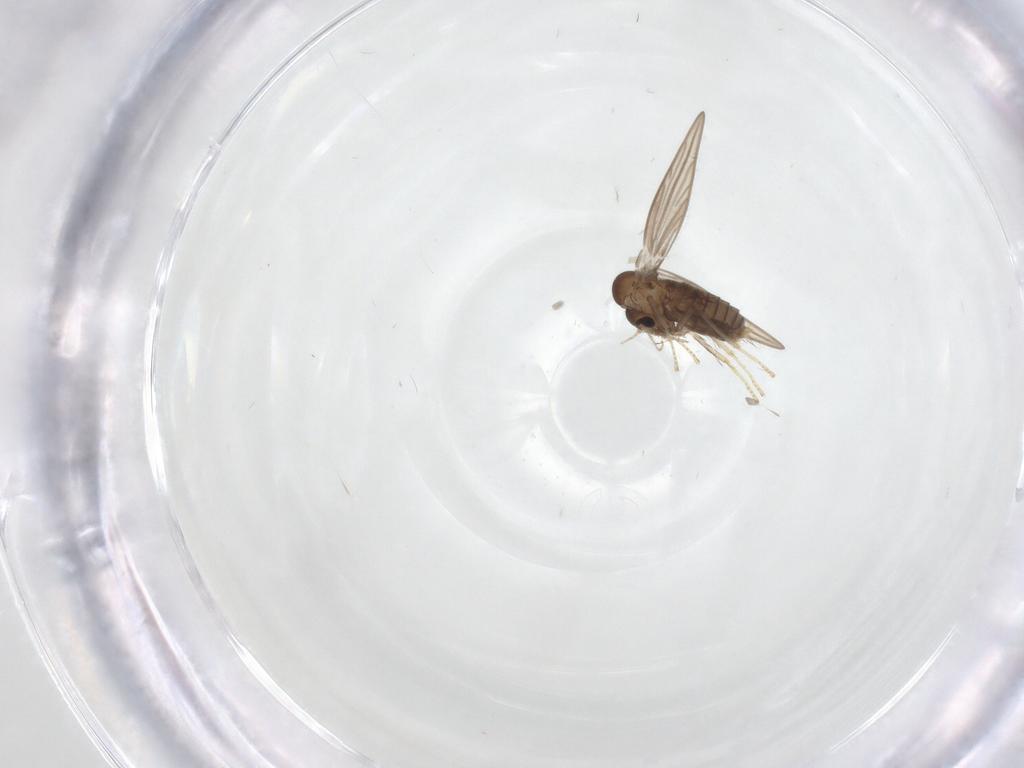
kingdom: Animalia
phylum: Arthropoda
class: Insecta
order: Diptera
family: Psychodidae
